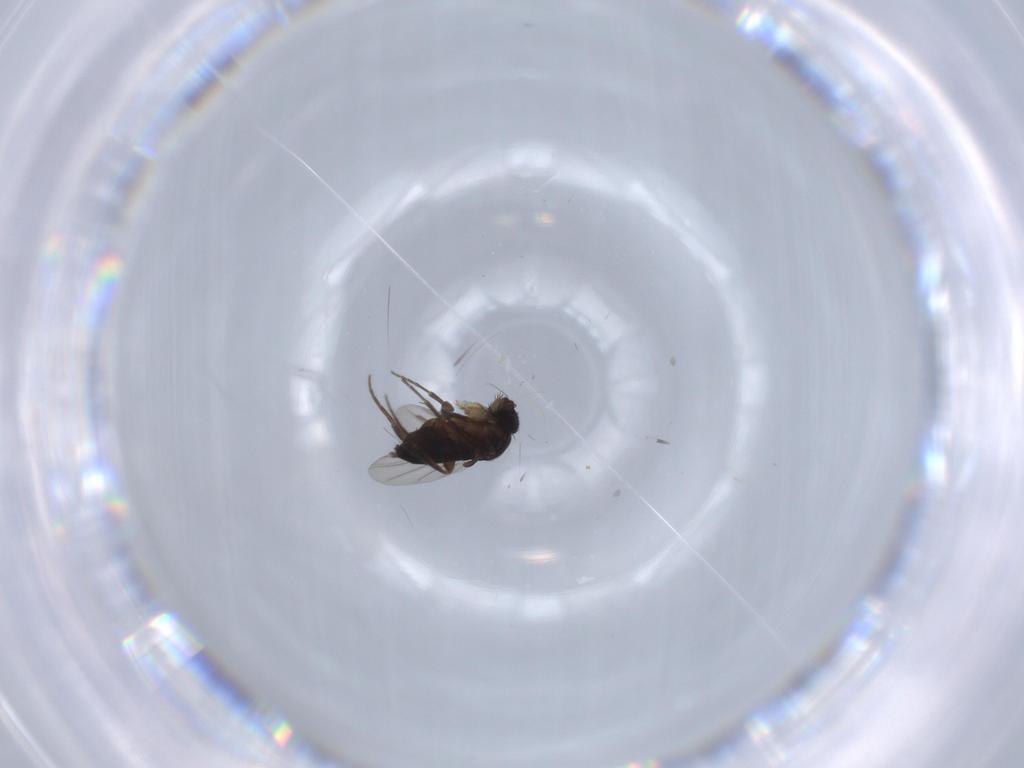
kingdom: Animalia
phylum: Arthropoda
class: Insecta
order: Diptera
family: Phoridae
